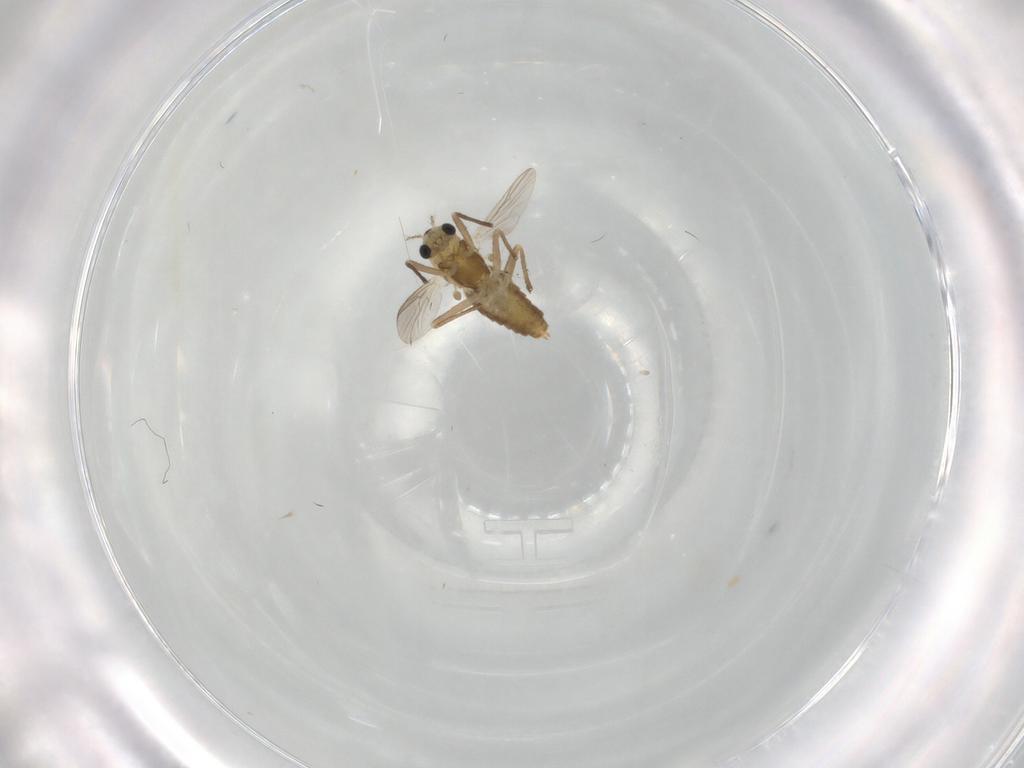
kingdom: Animalia
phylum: Arthropoda
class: Insecta
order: Diptera
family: Chironomidae
